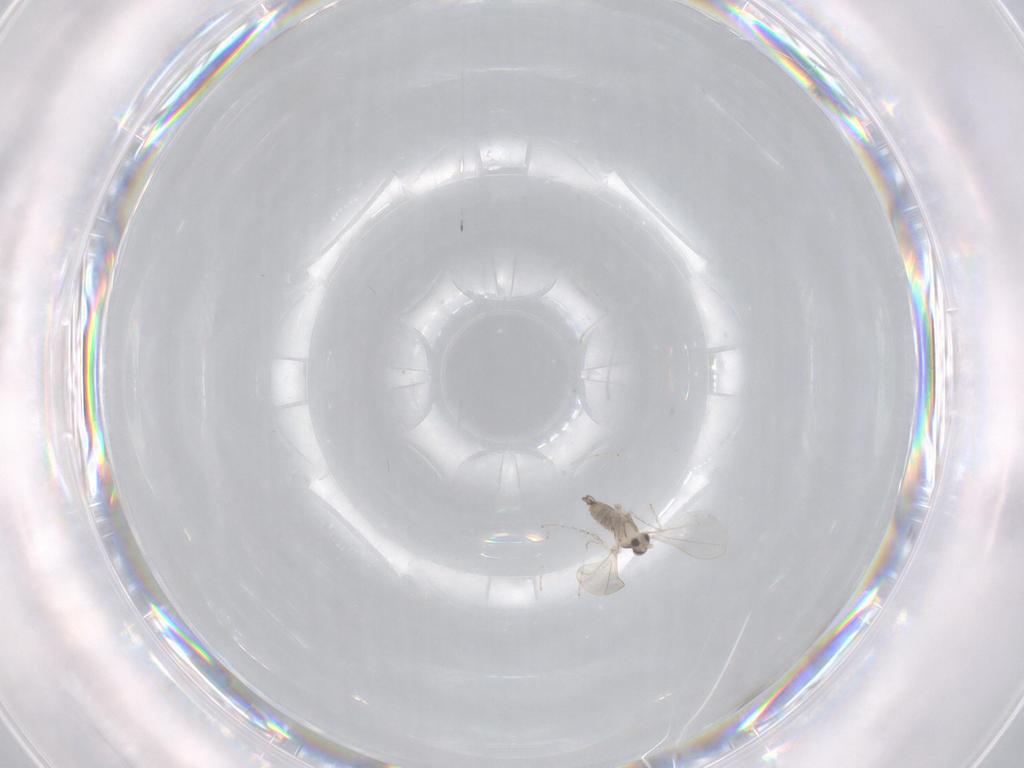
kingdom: Animalia
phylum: Arthropoda
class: Insecta
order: Diptera
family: Cecidomyiidae
